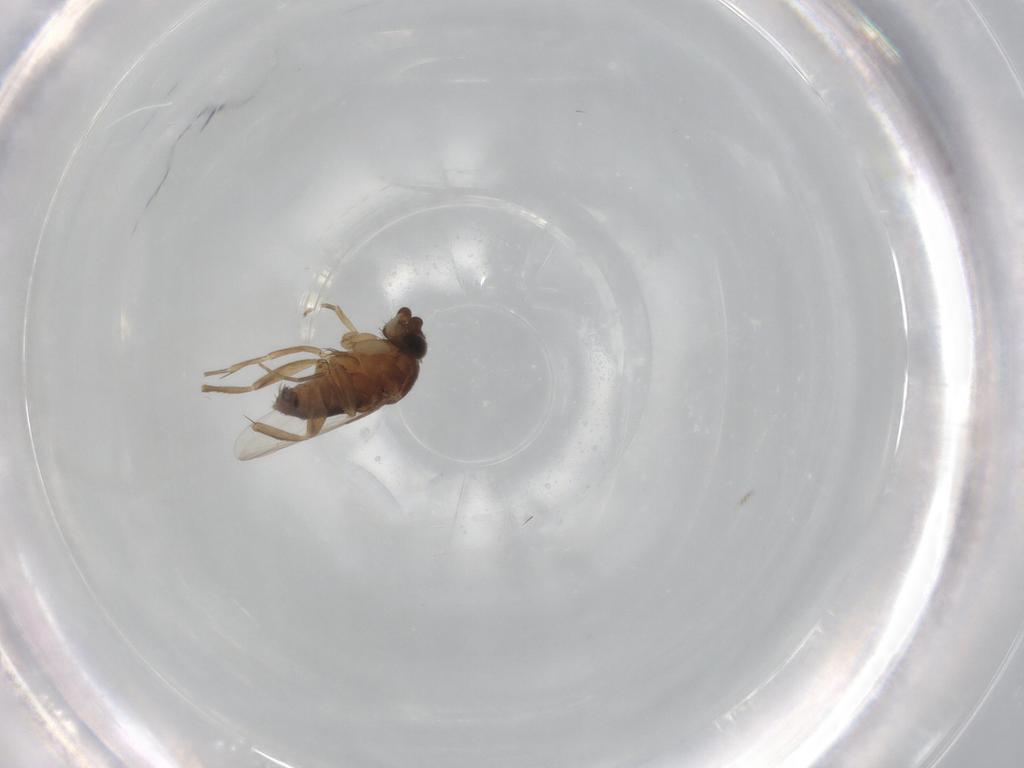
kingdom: Animalia
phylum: Arthropoda
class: Insecta
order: Diptera
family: Phoridae
